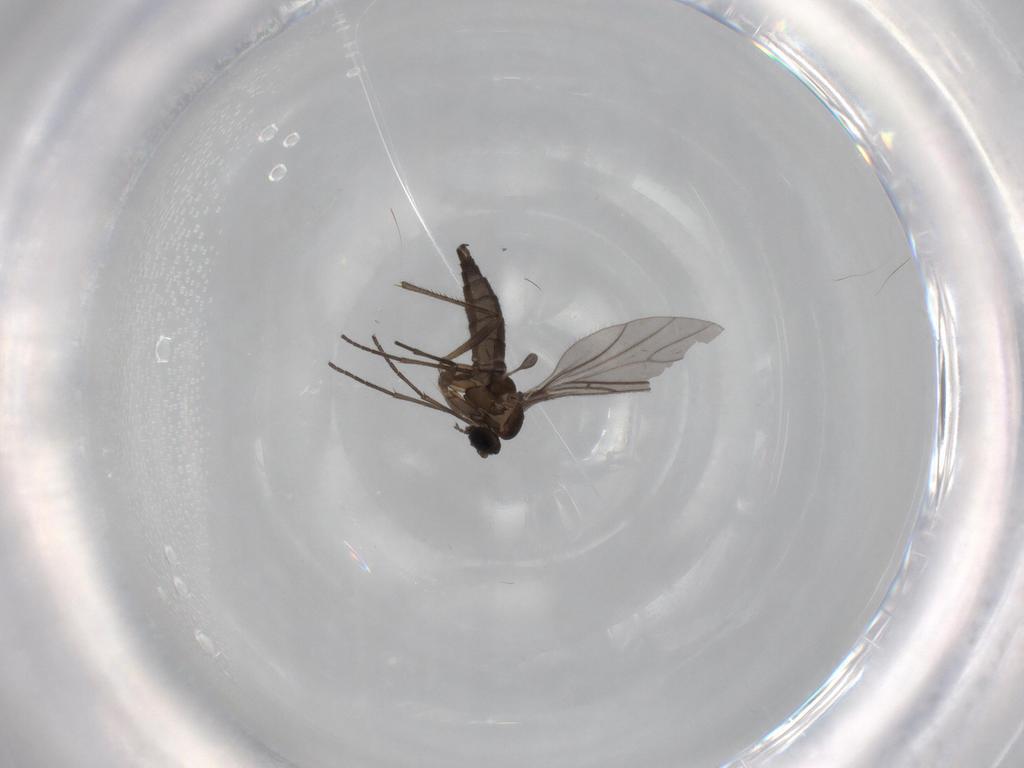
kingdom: Animalia
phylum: Arthropoda
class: Insecta
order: Diptera
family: Sciaridae
